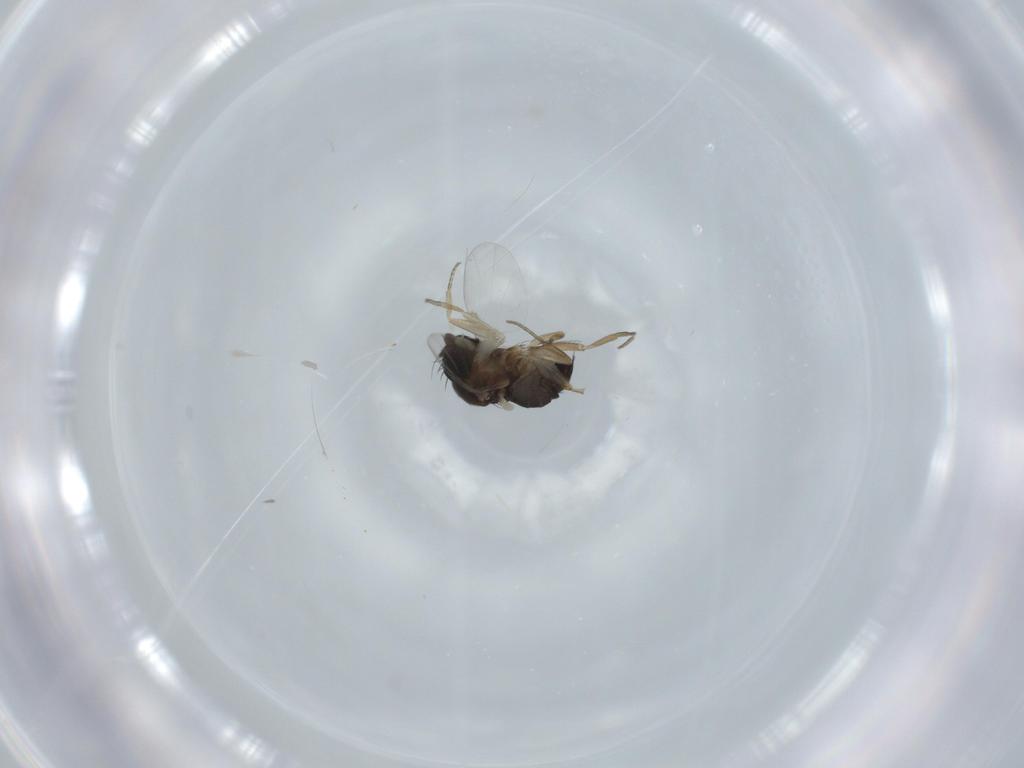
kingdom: Animalia
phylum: Arthropoda
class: Insecta
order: Diptera
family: Phoridae
